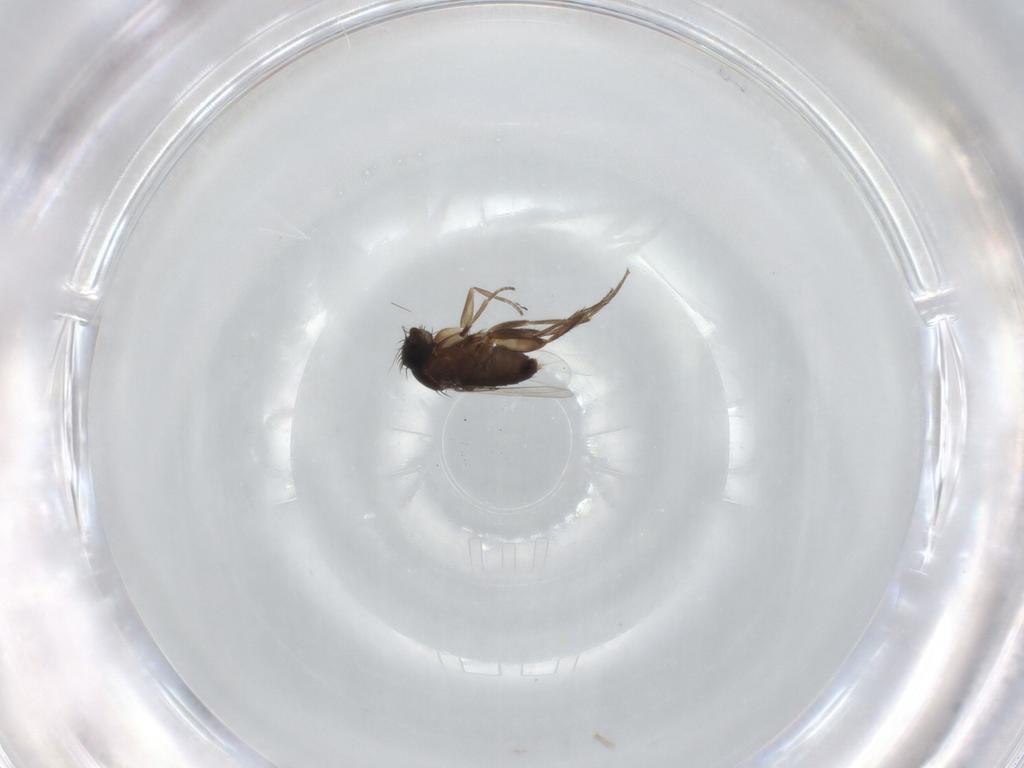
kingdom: Animalia
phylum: Arthropoda
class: Insecta
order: Diptera
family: Phoridae
